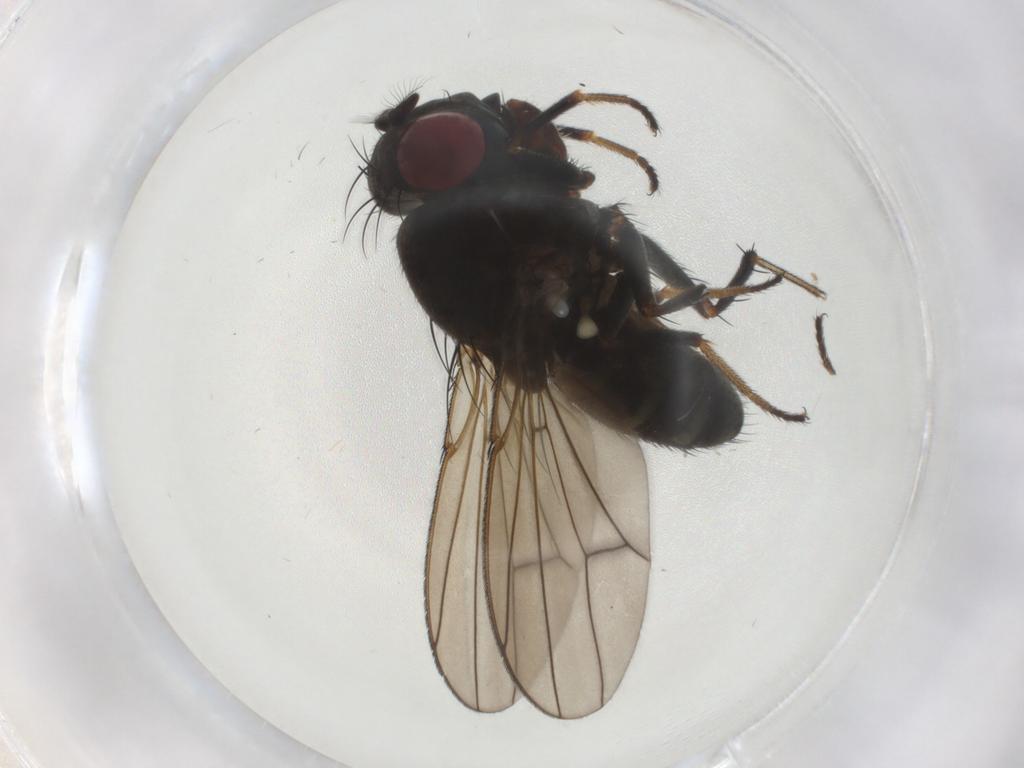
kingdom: Animalia
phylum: Arthropoda
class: Insecta
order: Diptera
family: Ephydridae
